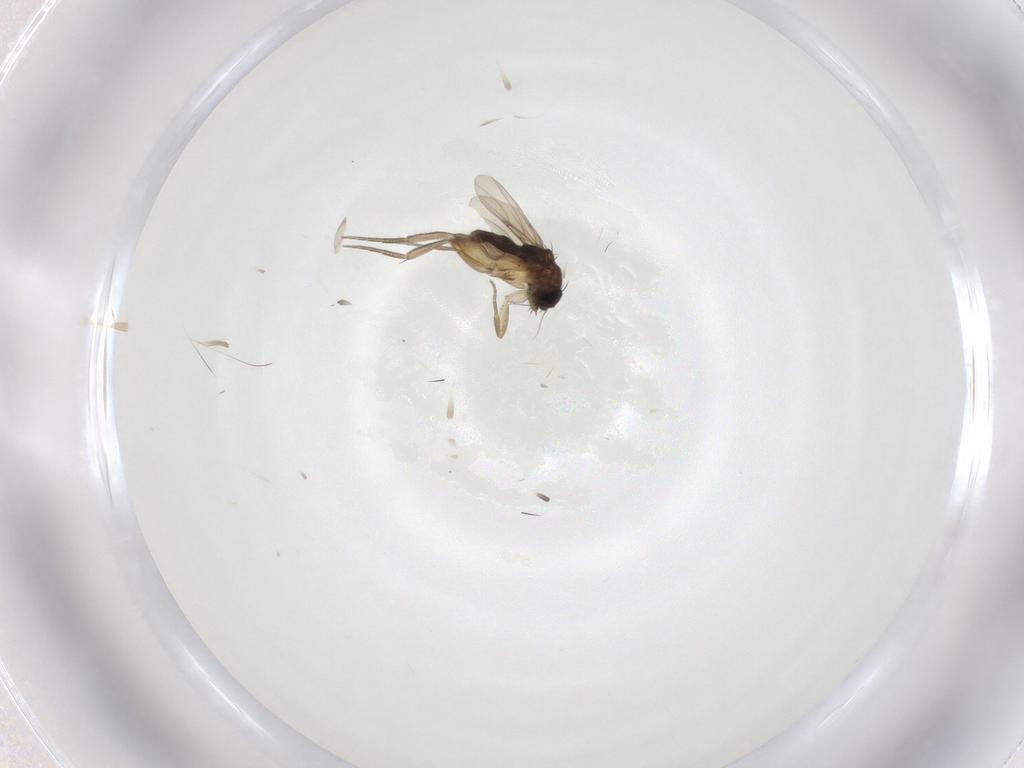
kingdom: Animalia
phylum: Arthropoda
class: Insecta
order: Diptera
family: Phoridae
